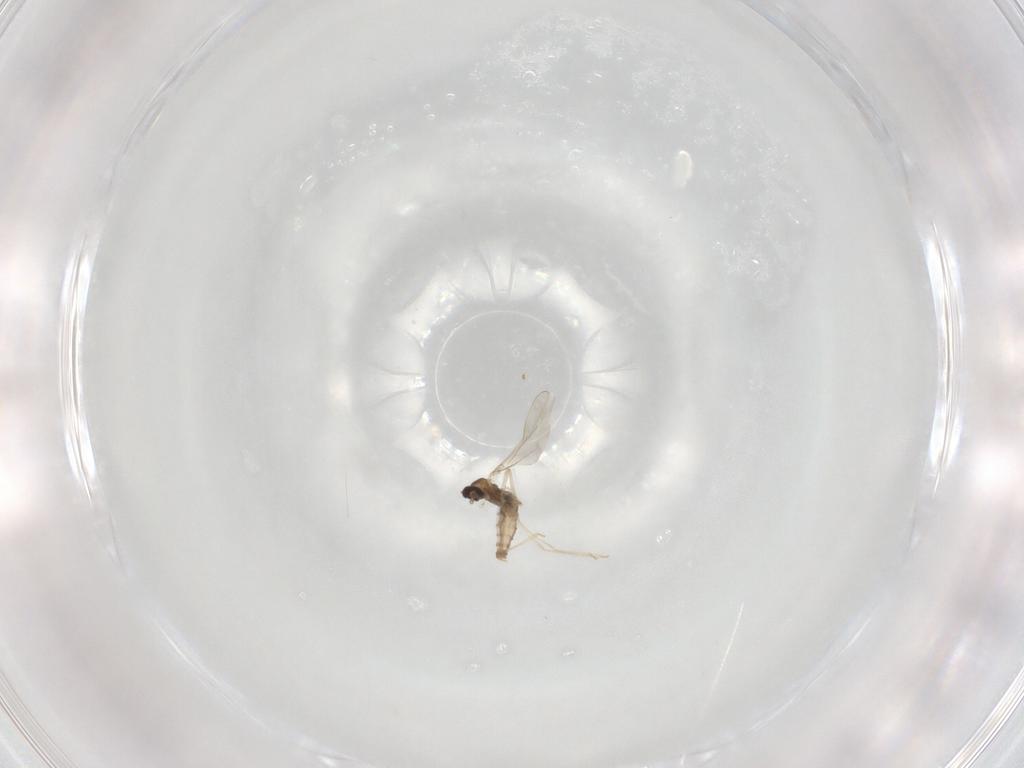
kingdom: Animalia
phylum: Arthropoda
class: Insecta
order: Diptera
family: Cecidomyiidae
